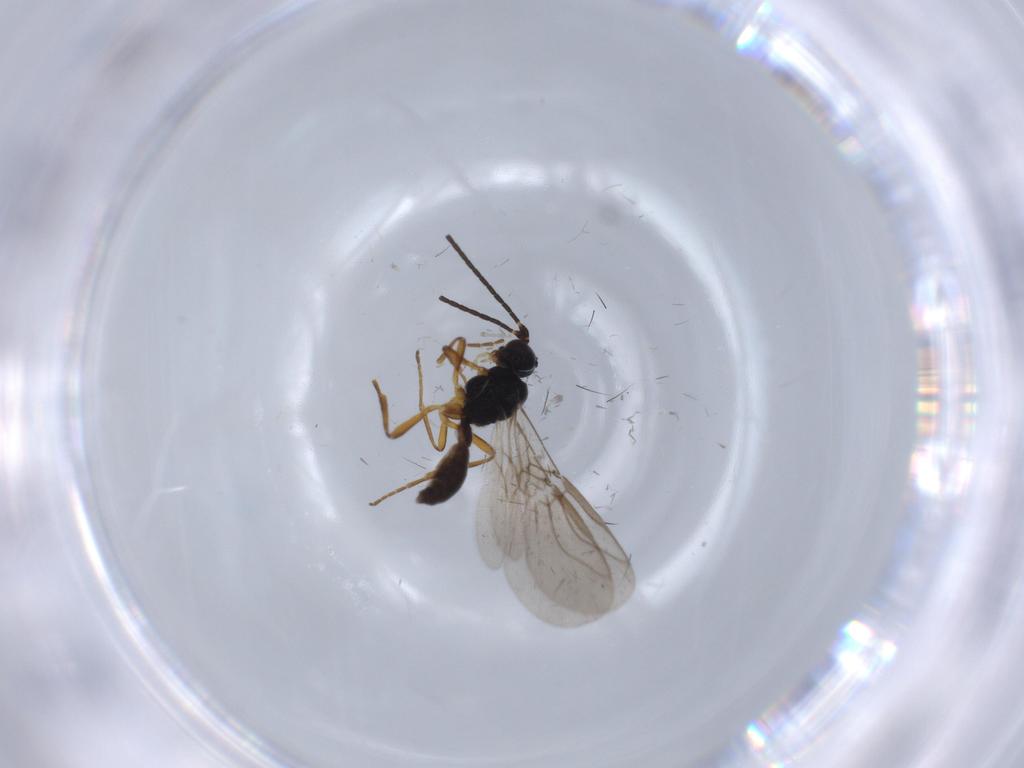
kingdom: Animalia
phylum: Arthropoda
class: Insecta
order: Hymenoptera
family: Braconidae
